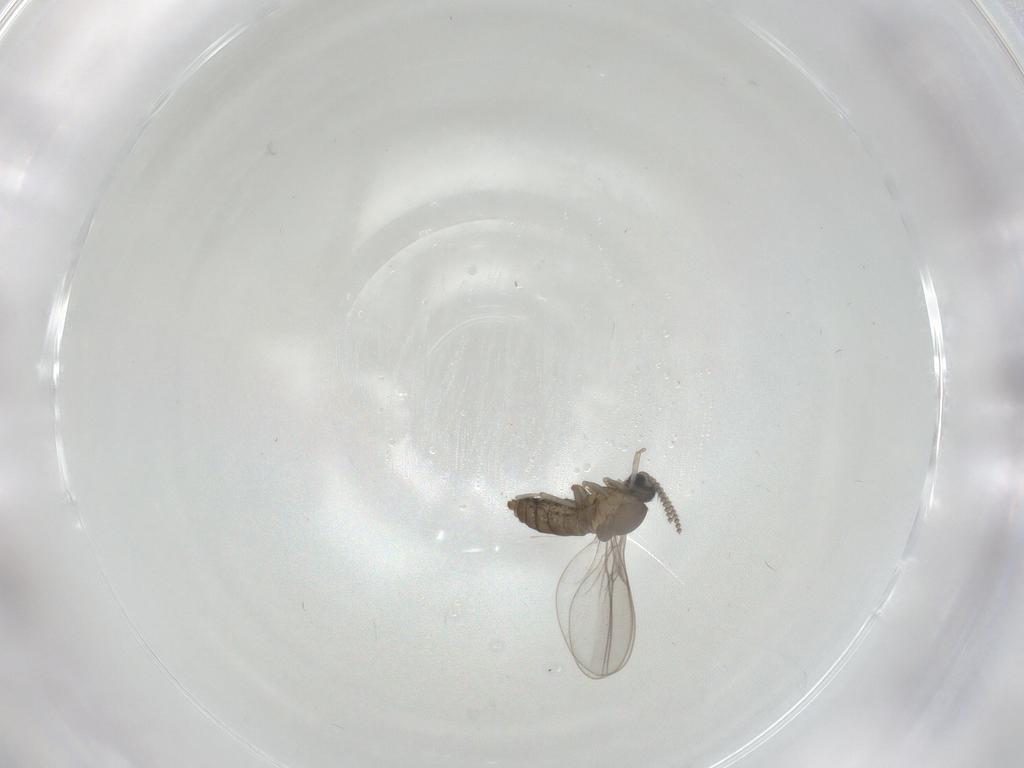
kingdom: Animalia
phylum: Arthropoda
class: Insecta
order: Diptera
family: Cecidomyiidae
